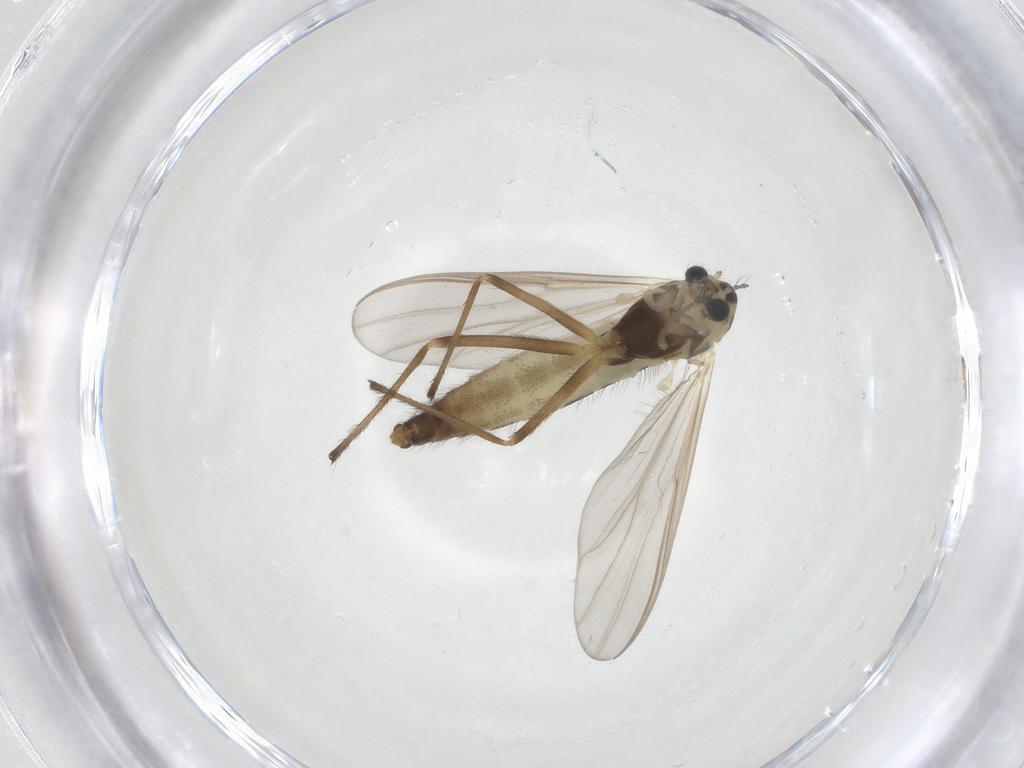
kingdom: Animalia
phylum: Arthropoda
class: Insecta
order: Diptera
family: Chironomidae
